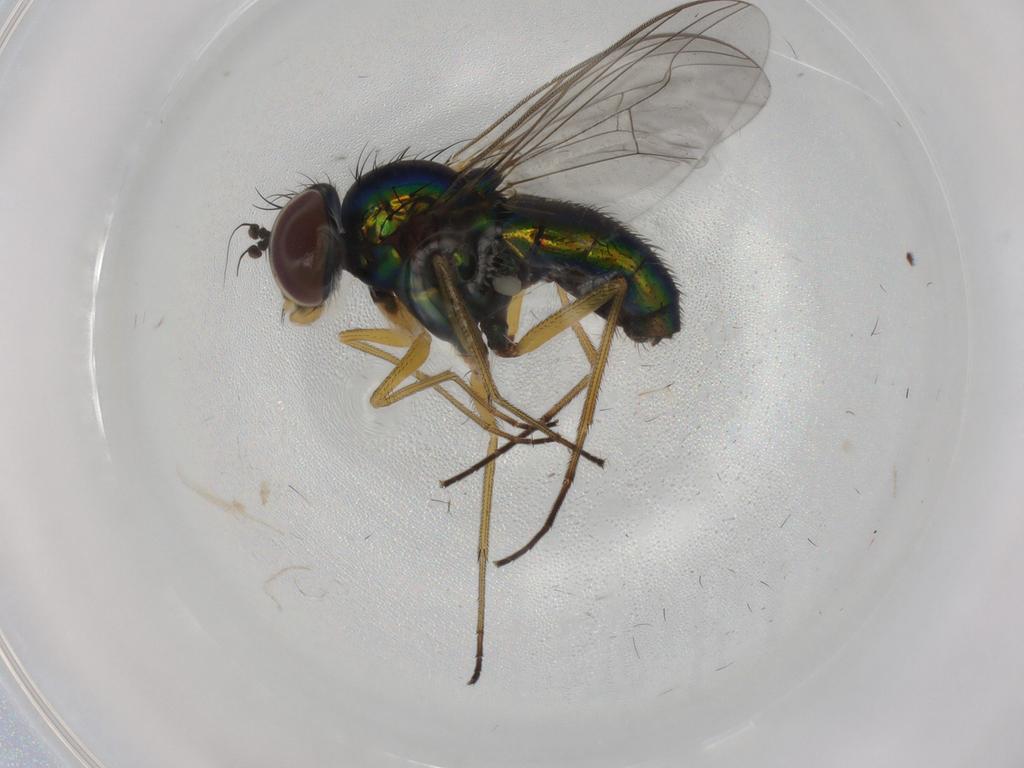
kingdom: Animalia
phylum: Arthropoda
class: Insecta
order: Diptera
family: Dolichopodidae
